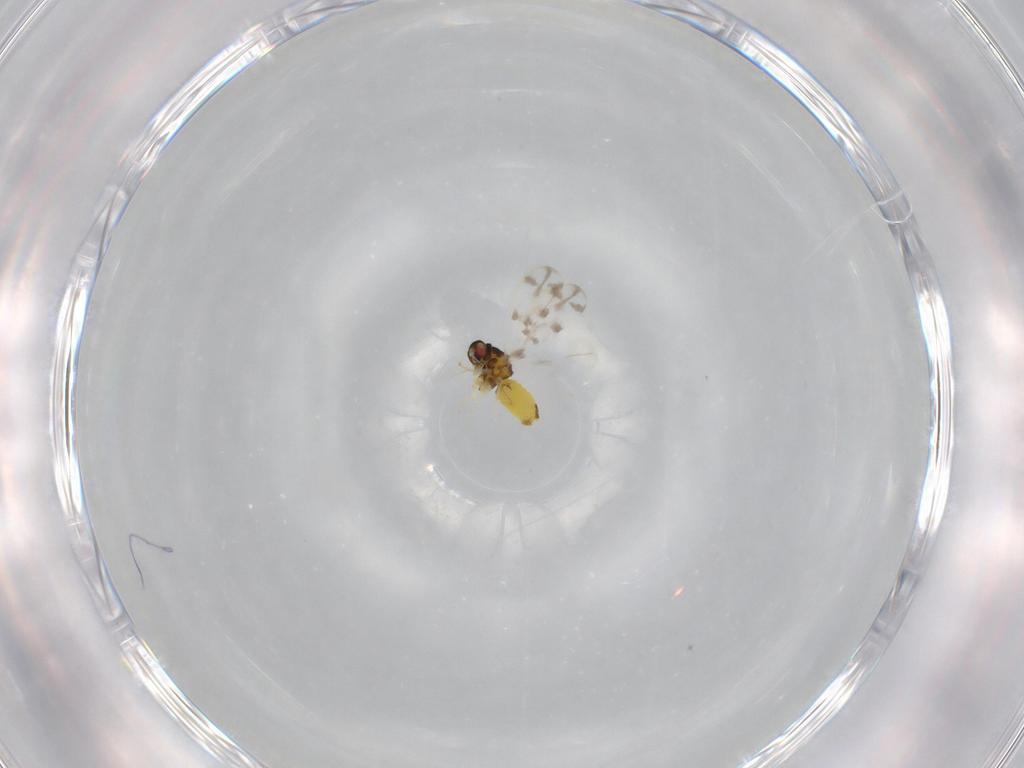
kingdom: Animalia
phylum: Arthropoda
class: Insecta
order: Hemiptera
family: Aleyrodidae
